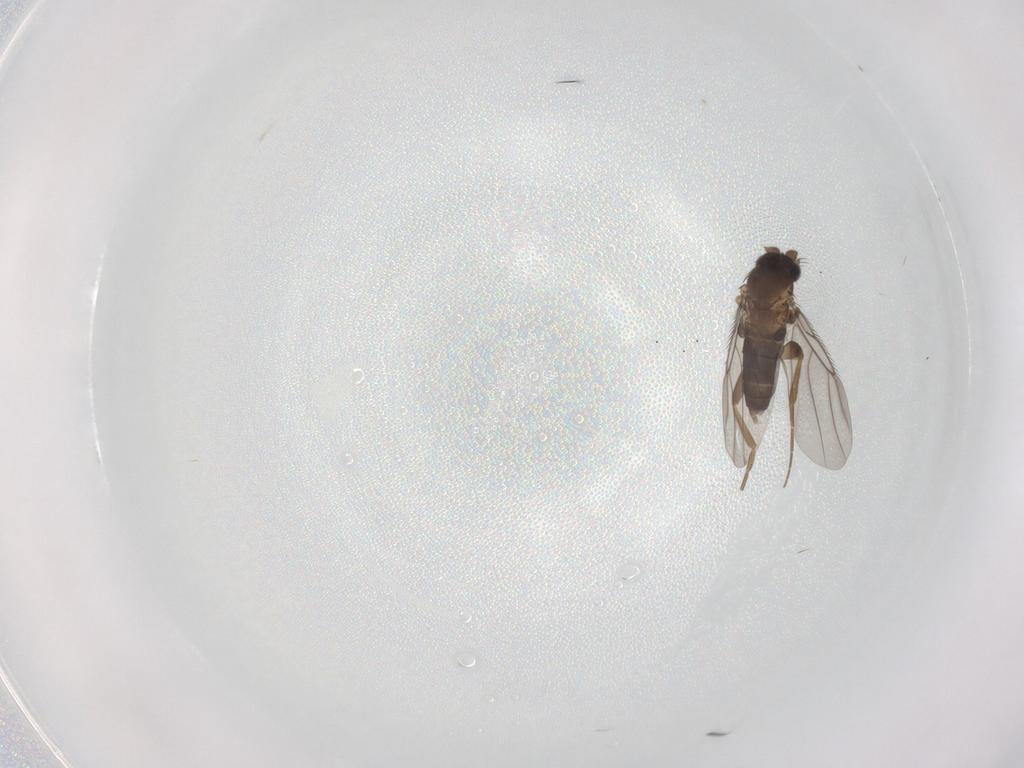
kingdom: Animalia
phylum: Arthropoda
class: Insecta
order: Diptera
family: Phoridae
